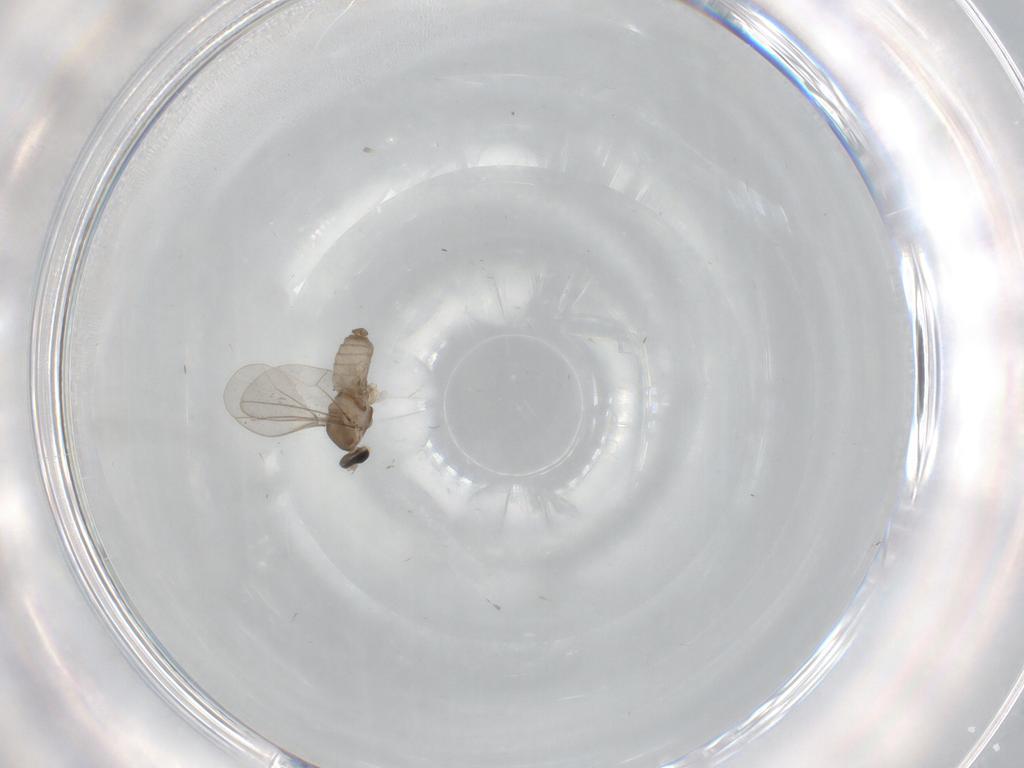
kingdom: Animalia
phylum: Arthropoda
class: Insecta
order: Diptera
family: Cecidomyiidae
